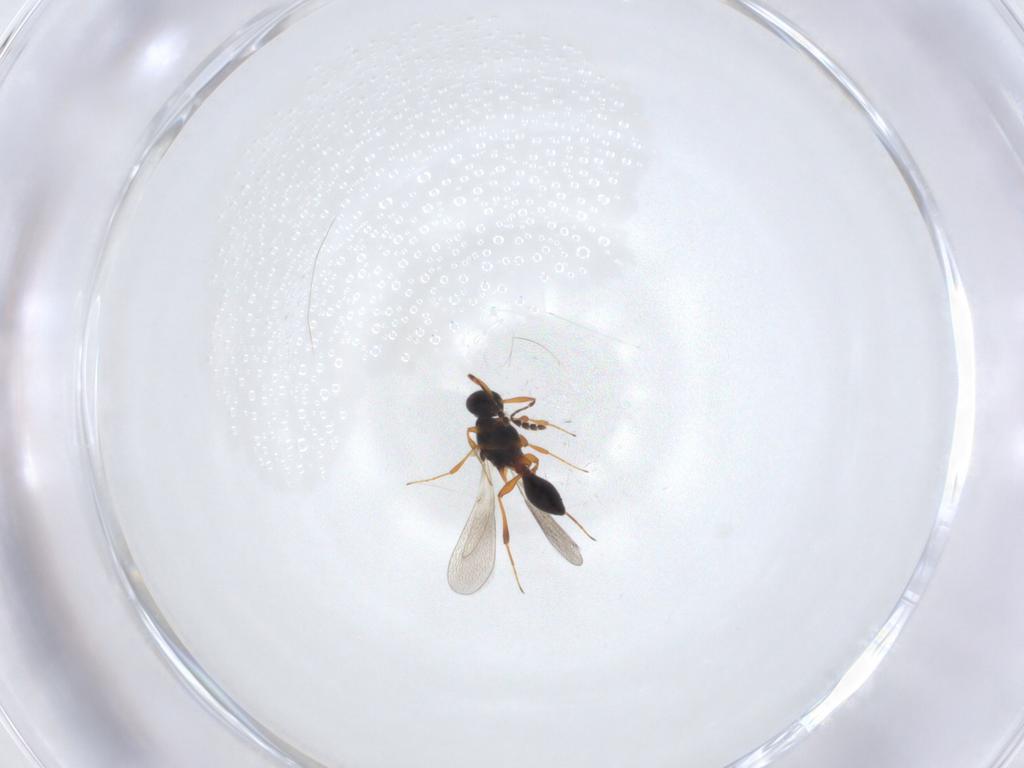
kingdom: Animalia
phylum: Arthropoda
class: Insecta
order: Hymenoptera
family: Platygastridae
